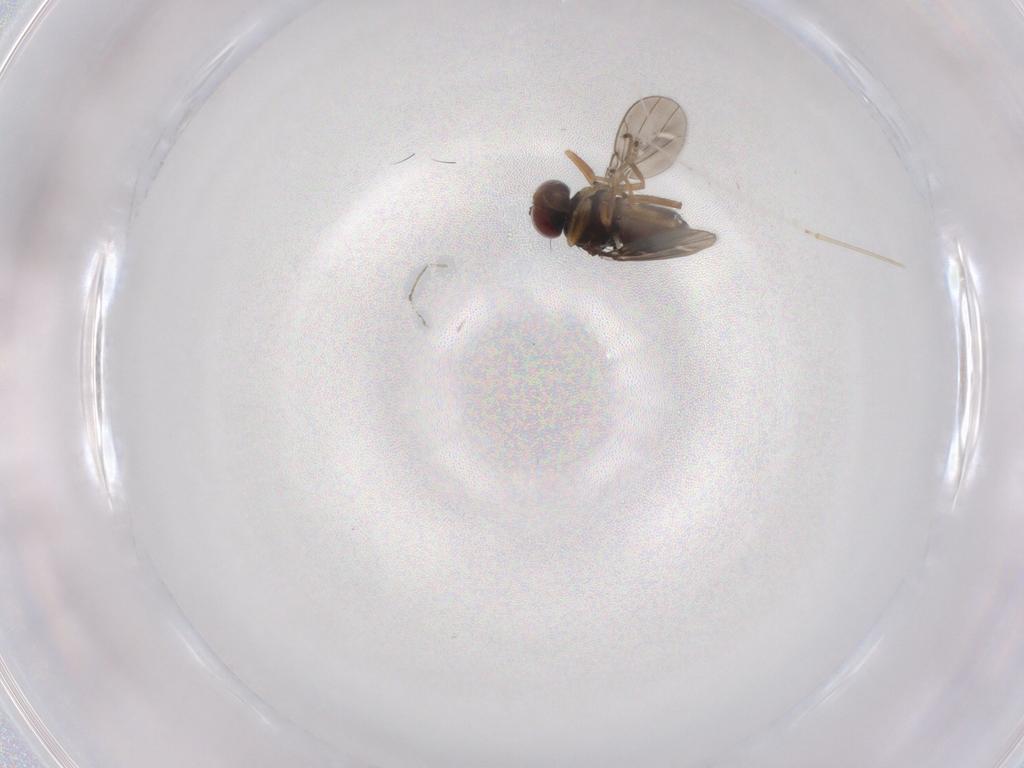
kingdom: Animalia
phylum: Arthropoda
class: Insecta
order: Diptera
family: Ephydridae
